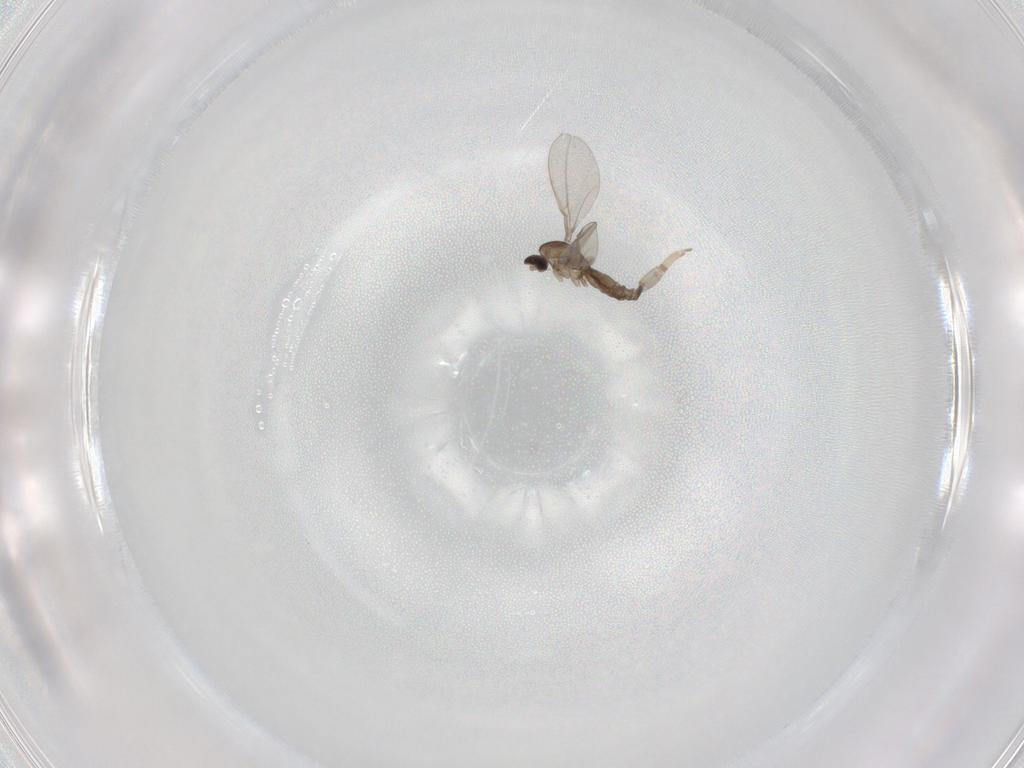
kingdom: Animalia
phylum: Arthropoda
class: Insecta
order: Diptera
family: Cecidomyiidae
